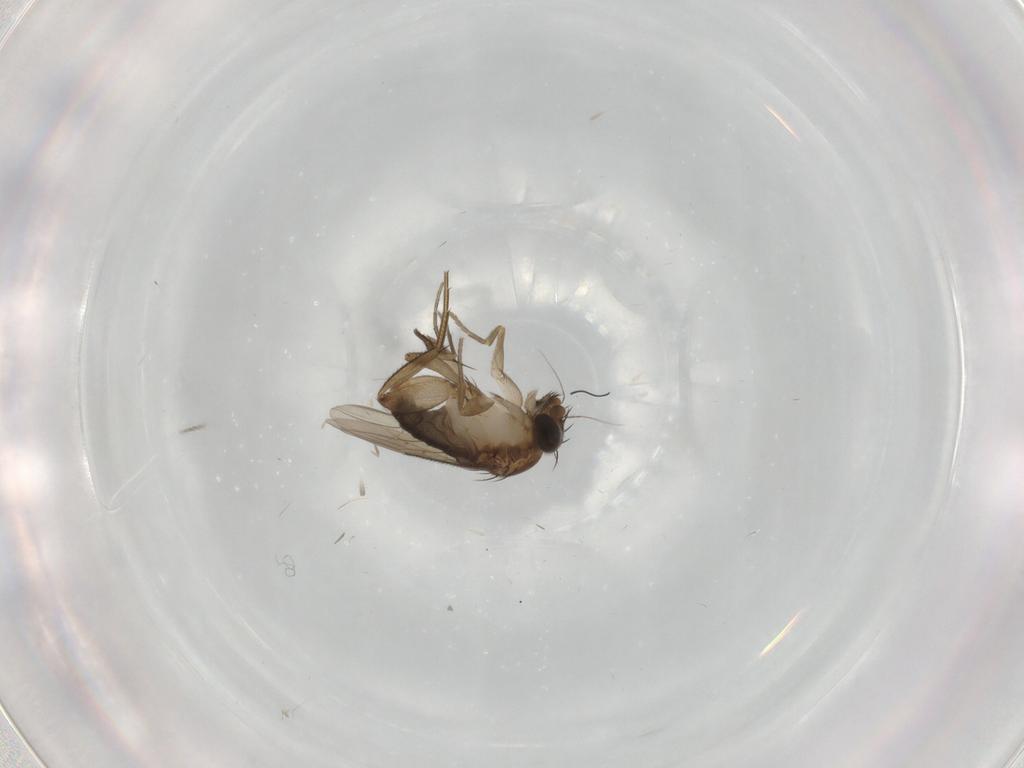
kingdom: Animalia
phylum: Arthropoda
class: Insecta
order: Diptera
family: Phoridae
